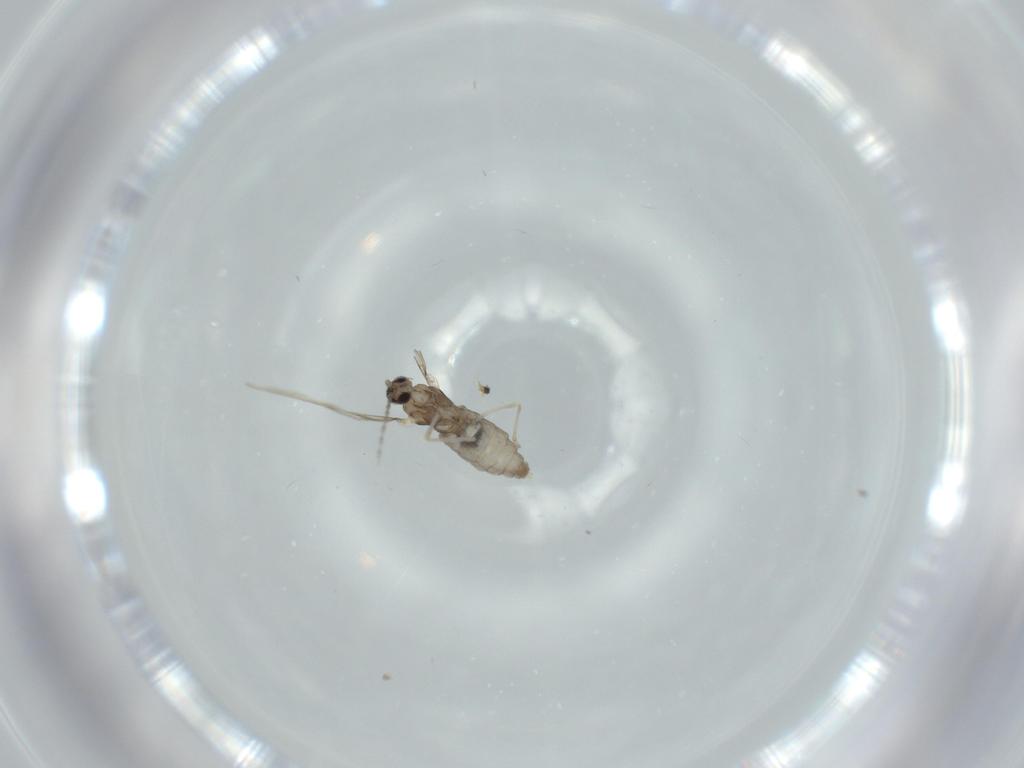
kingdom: Animalia
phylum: Arthropoda
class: Insecta
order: Diptera
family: Cecidomyiidae
